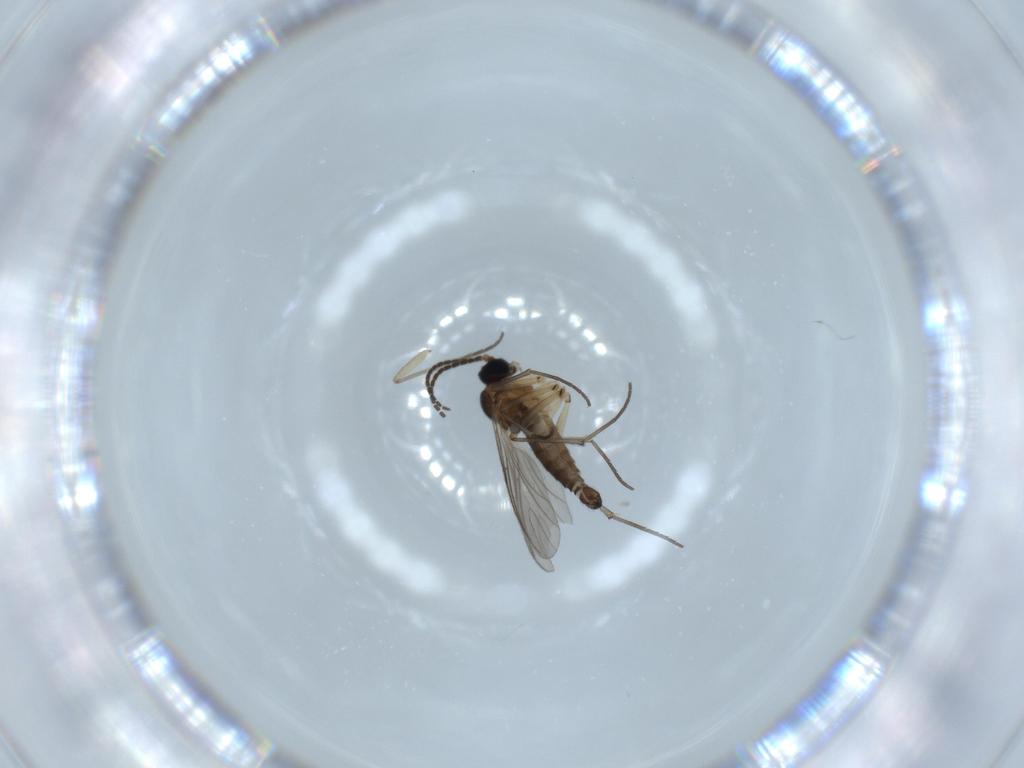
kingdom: Animalia
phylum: Arthropoda
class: Insecta
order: Diptera
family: Sciaridae
